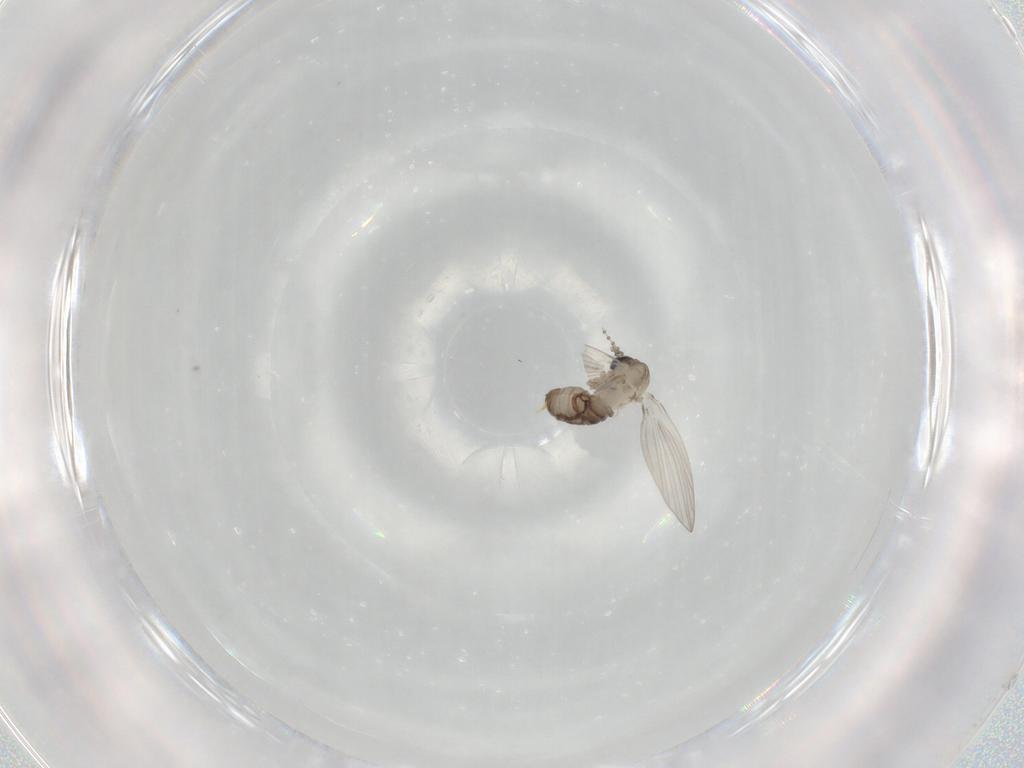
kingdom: Animalia
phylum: Arthropoda
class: Insecta
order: Diptera
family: Psychodidae
